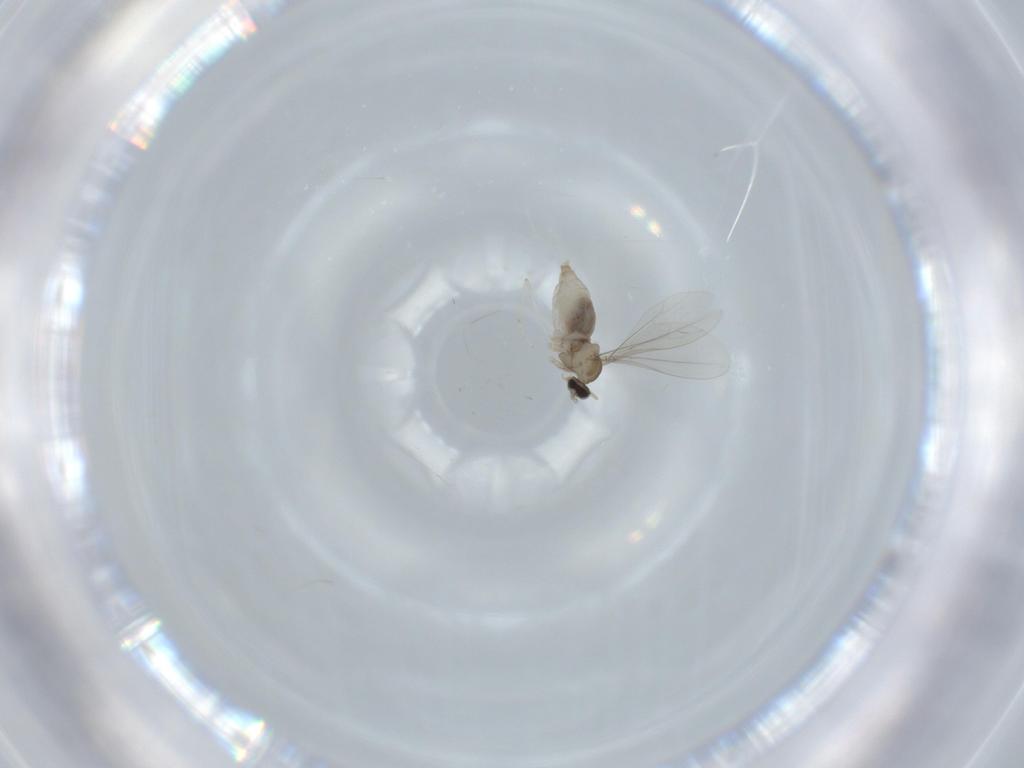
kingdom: Animalia
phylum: Arthropoda
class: Insecta
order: Diptera
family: Cecidomyiidae
